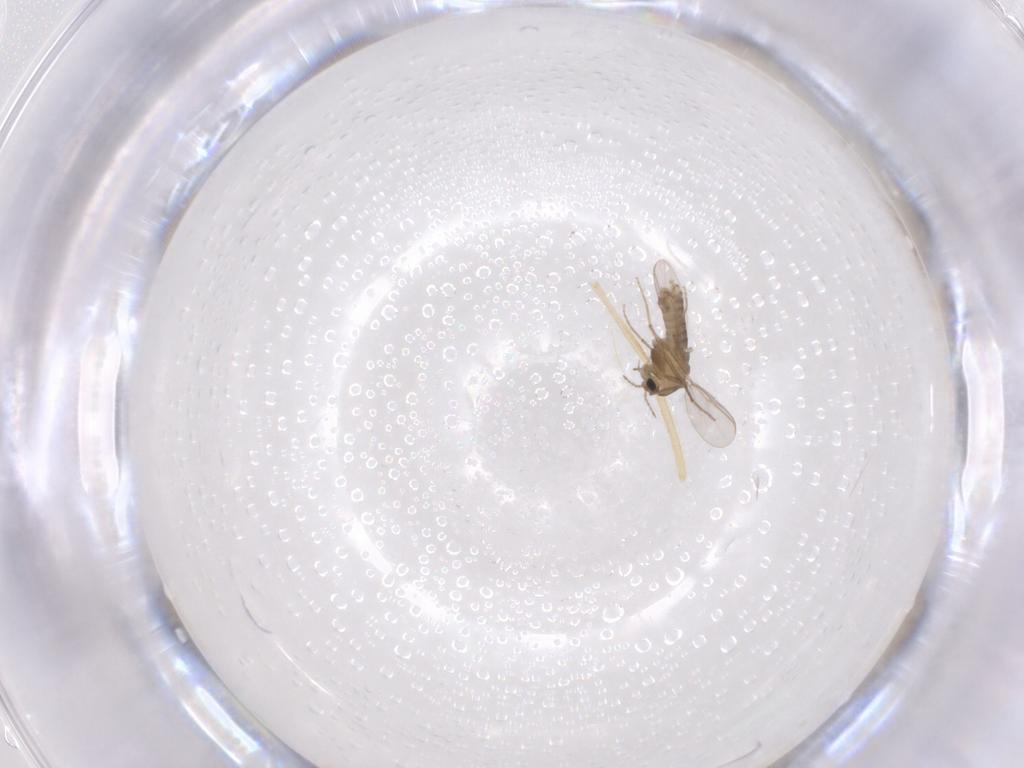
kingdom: Animalia
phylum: Arthropoda
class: Insecta
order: Diptera
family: Chironomidae
